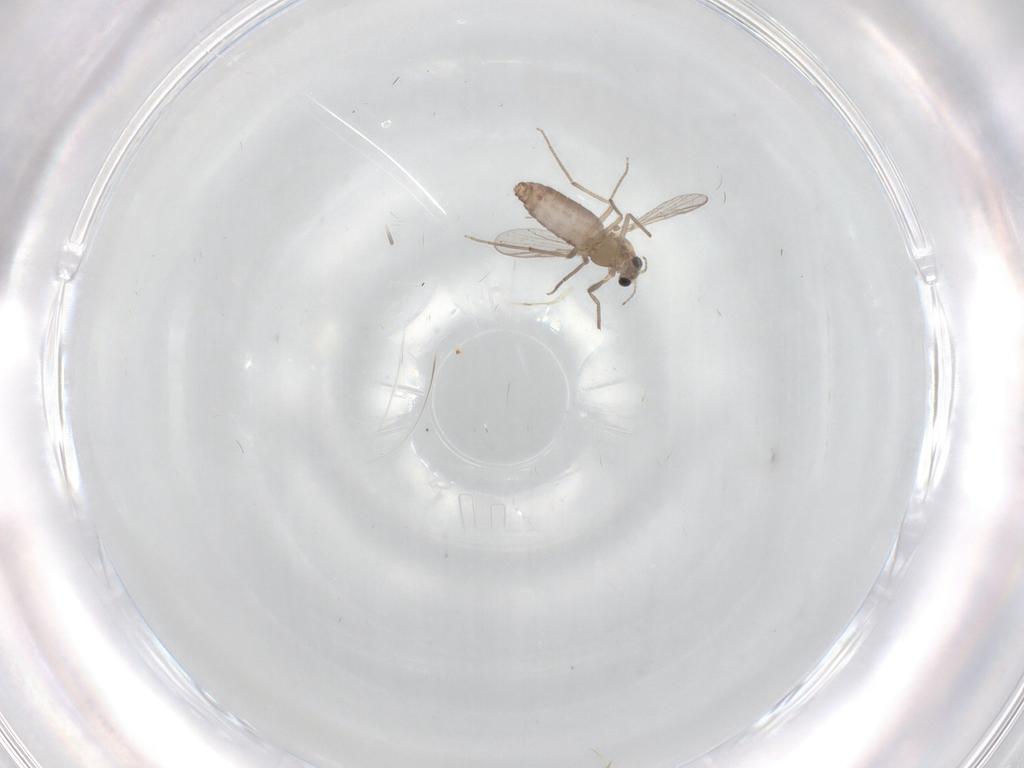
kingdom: Animalia
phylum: Arthropoda
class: Insecta
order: Diptera
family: Chironomidae
